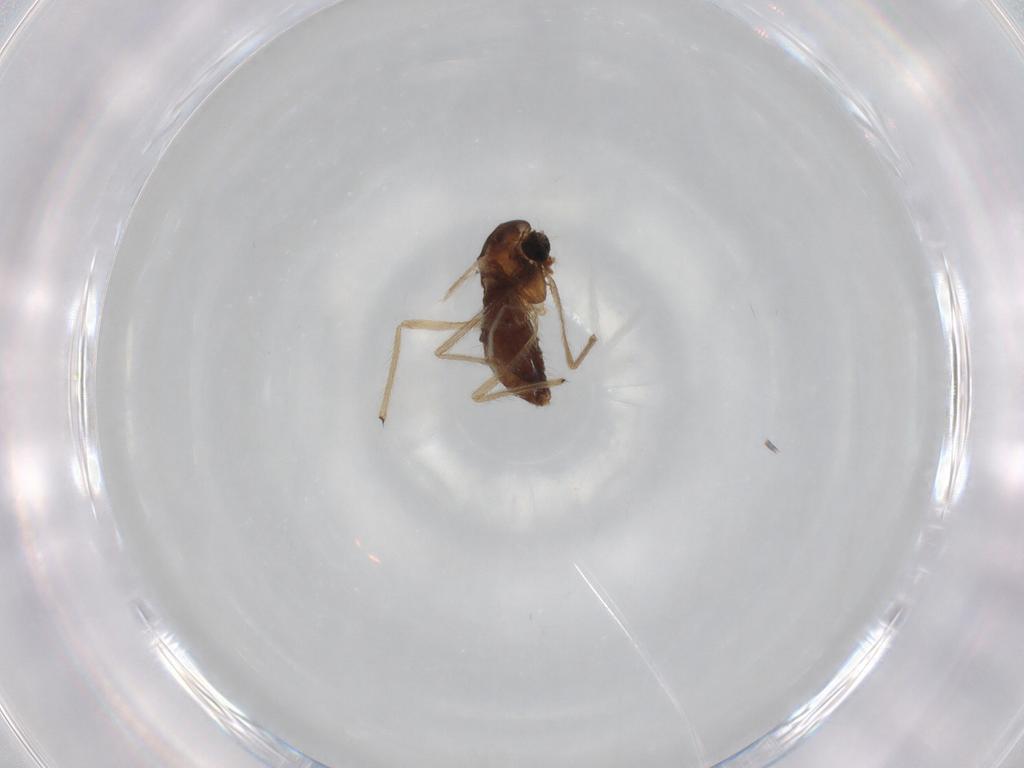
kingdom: Animalia
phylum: Arthropoda
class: Insecta
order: Diptera
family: Chironomidae
